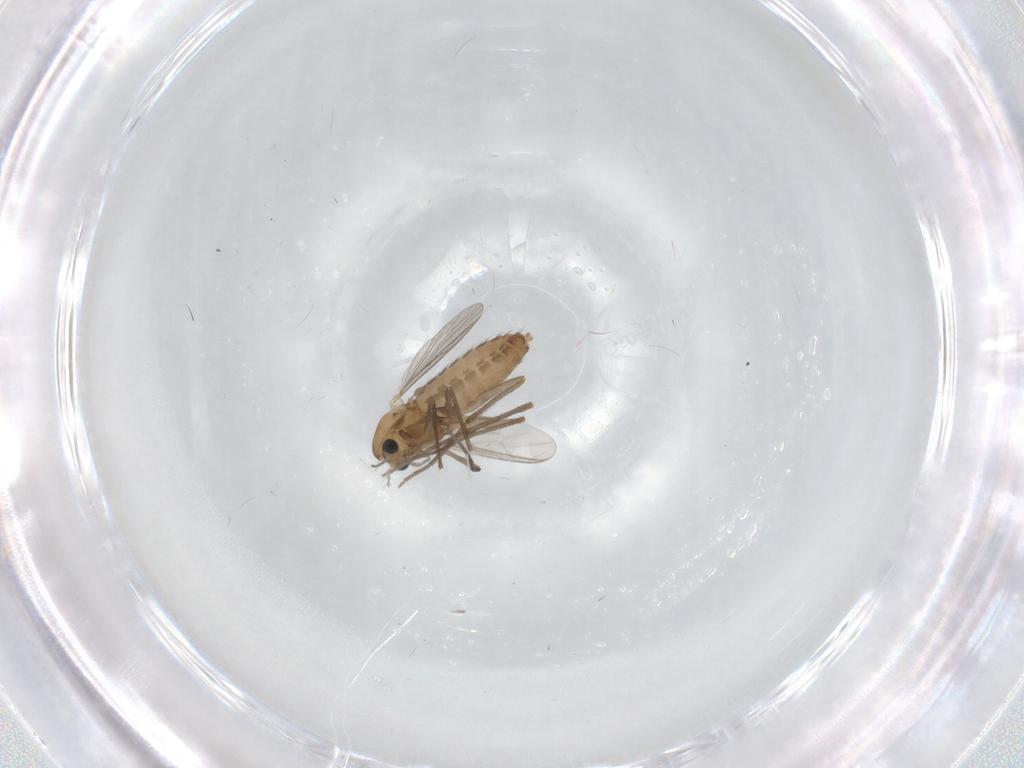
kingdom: Animalia
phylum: Arthropoda
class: Insecta
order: Diptera
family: Chironomidae
